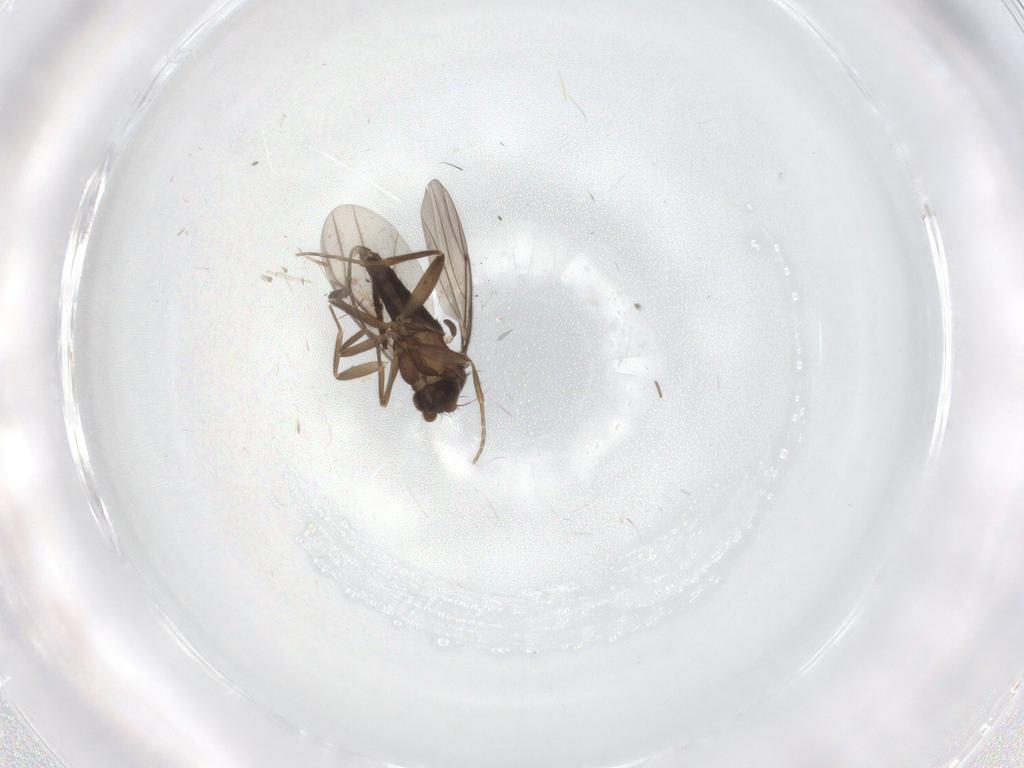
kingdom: Animalia
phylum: Arthropoda
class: Insecta
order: Diptera
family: Ceratopogonidae
